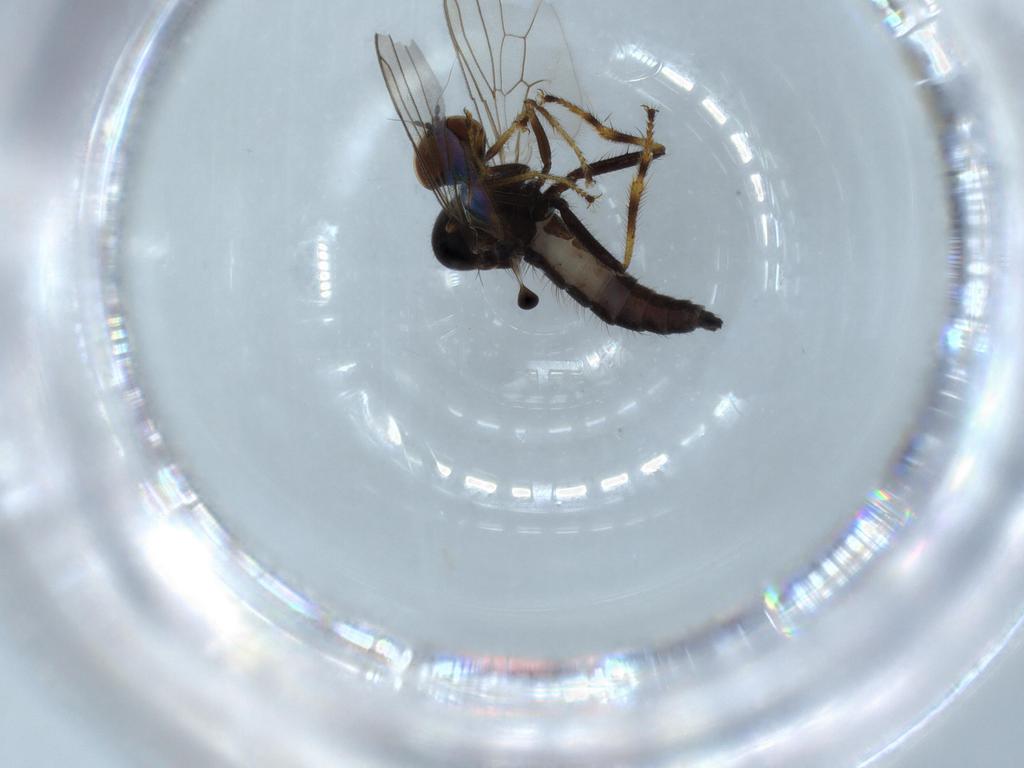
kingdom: Animalia
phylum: Arthropoda
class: Insecta
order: Diptera
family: Hybotidae
